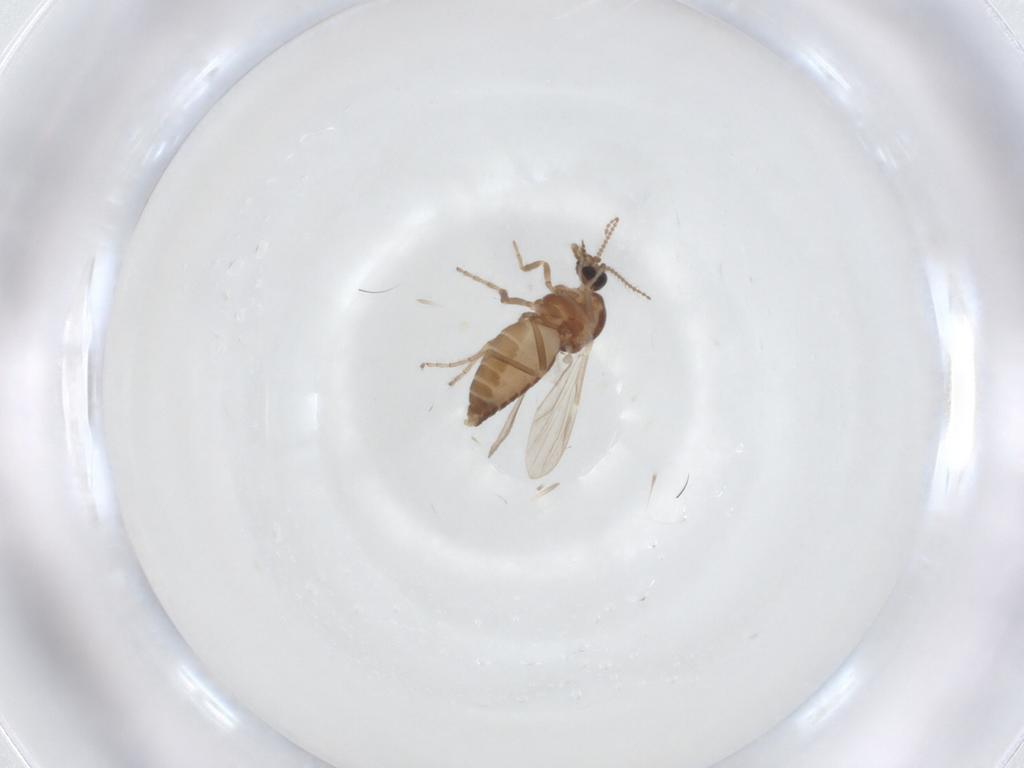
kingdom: Animalia
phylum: Arthropoda
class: Insecta
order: Diptera
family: Ceratopogonidae
